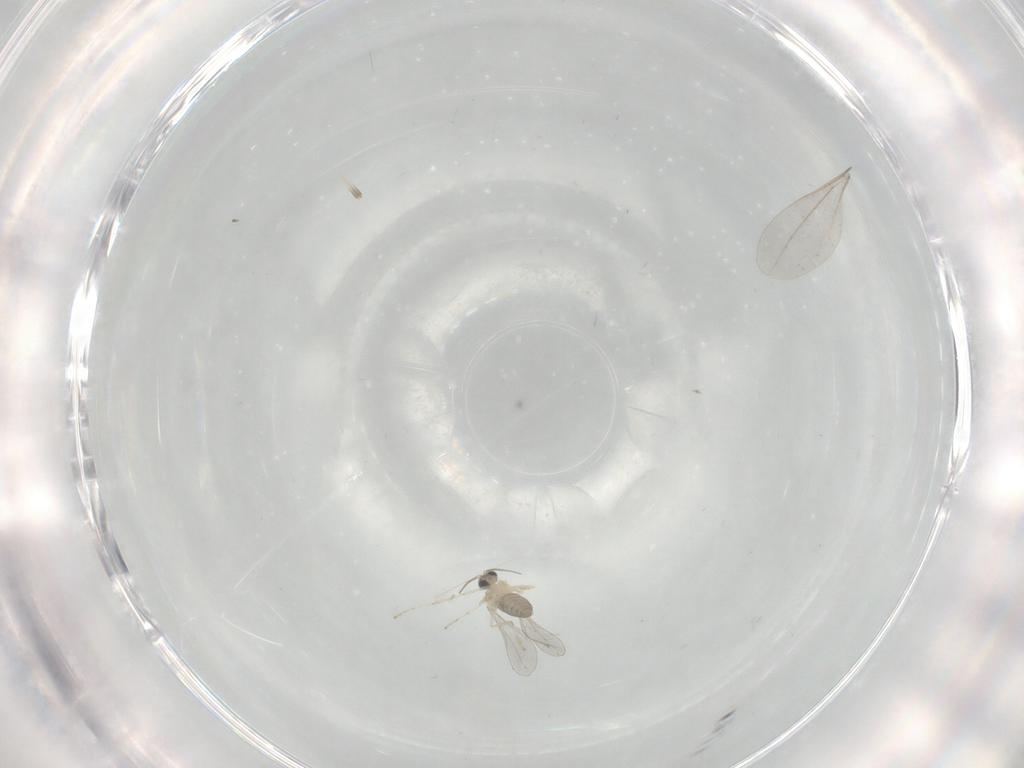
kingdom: Animalia
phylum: Arthropoda
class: Insecta
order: Diptera
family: Cecidomyiidae
